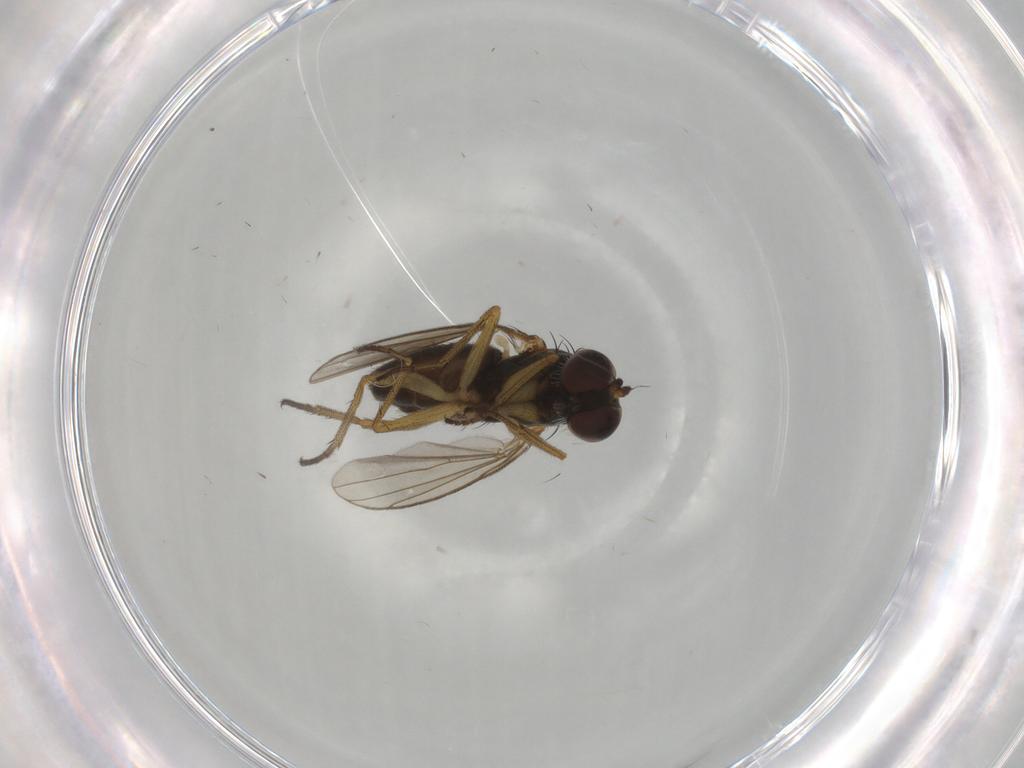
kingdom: Animalia
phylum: Arthropoda
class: Insecta
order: Diptera
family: Dolichopodidae
